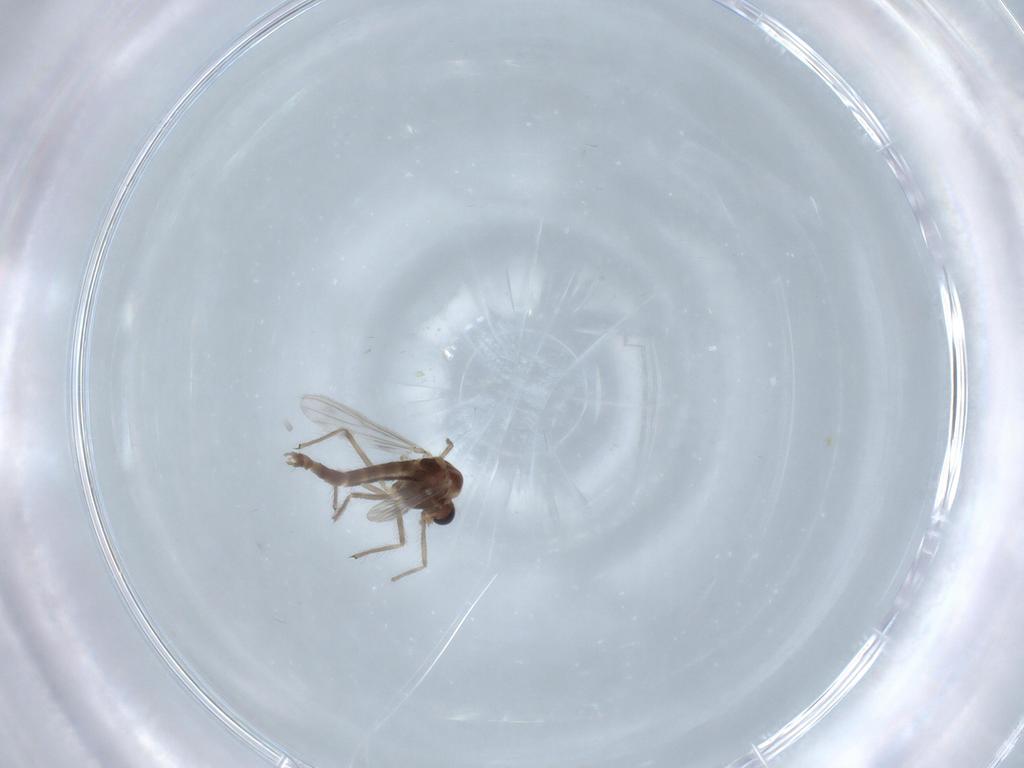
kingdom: Animalia
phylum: Arthropoda
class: Insecta
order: Diptera
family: Chironomidae
